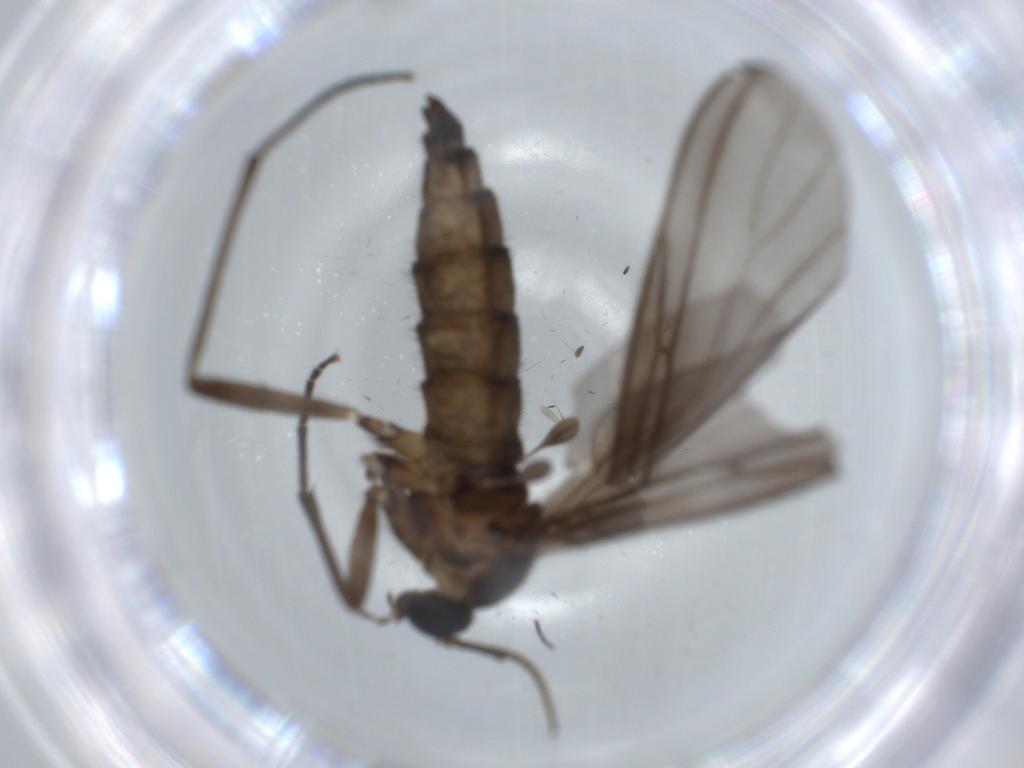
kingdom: Animalia
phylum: Arthropoda
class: Insecta
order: Diptera
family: Sciaridae
